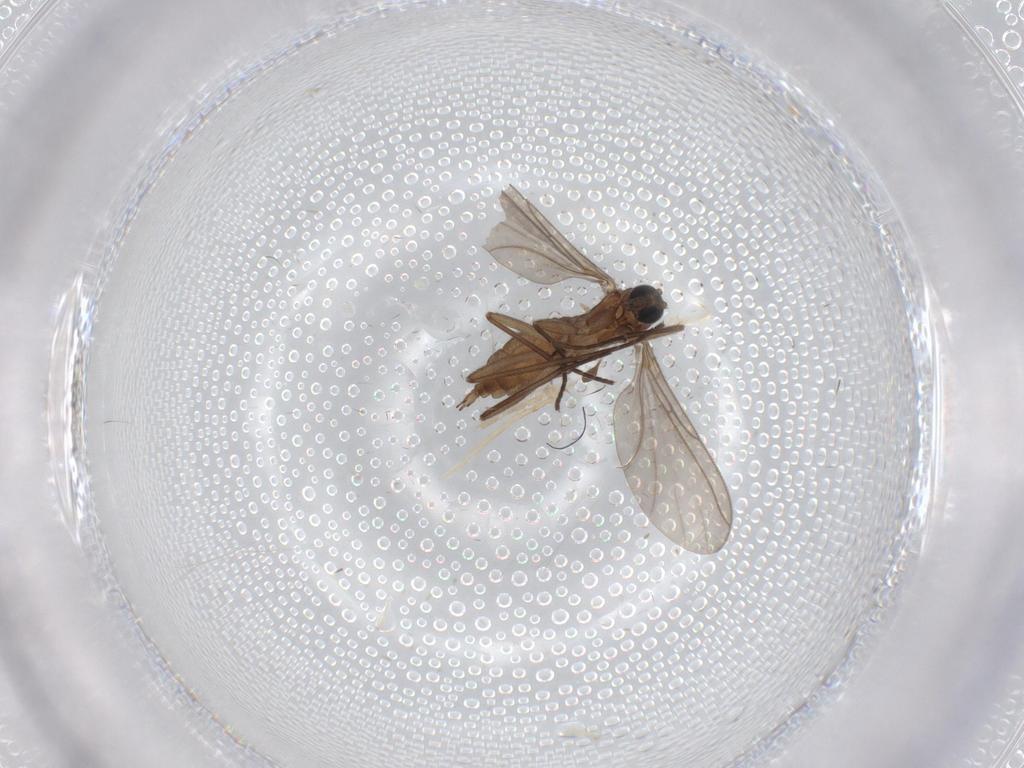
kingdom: Animalia
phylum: Arthropoda
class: Insecta
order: Diptera
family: Sciaridae
